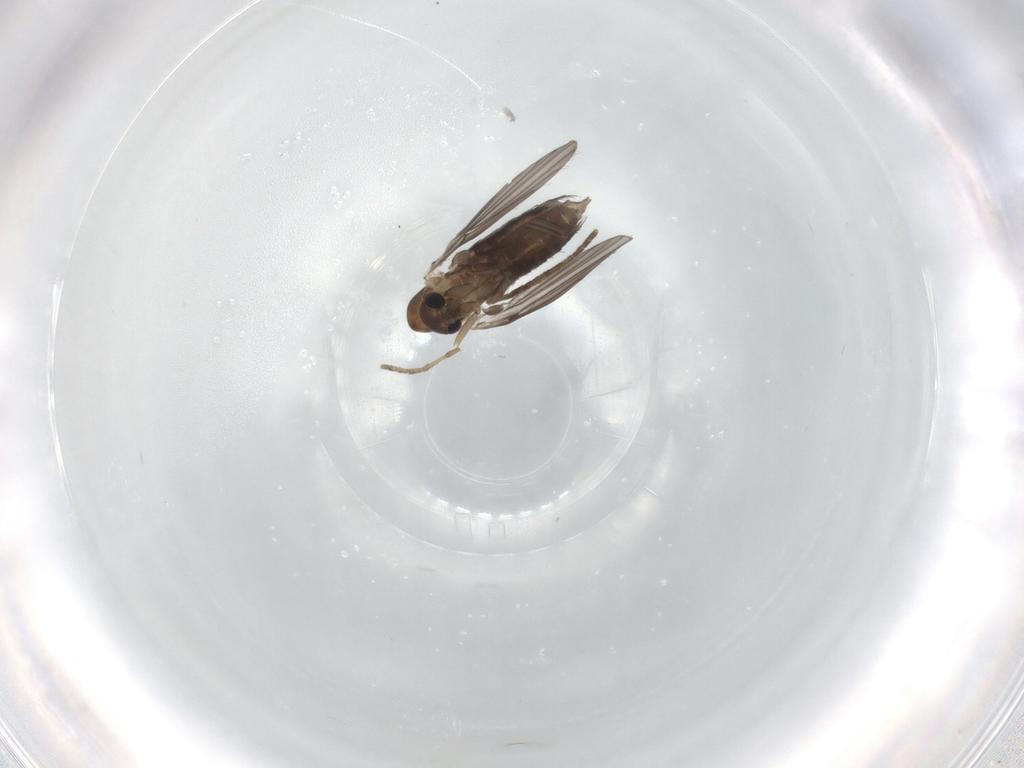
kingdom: Animalia
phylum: Arthropoda
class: Insecta
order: Diptera
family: Psychodidae
